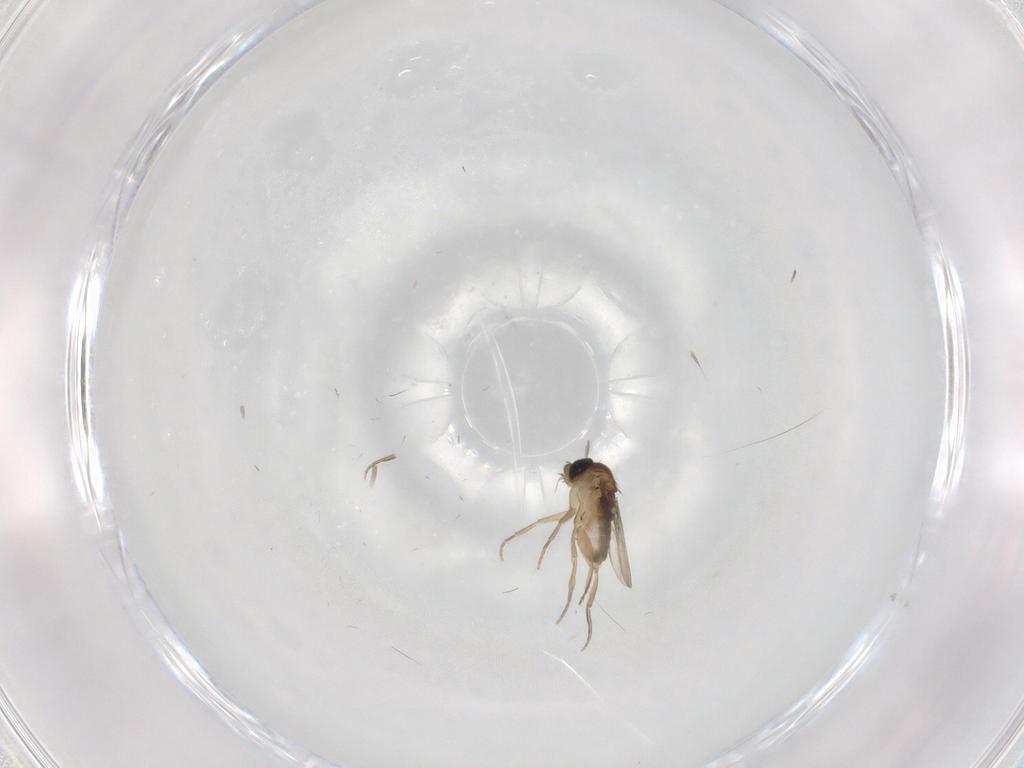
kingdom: Animalia
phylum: Arthropoda
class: Insecta
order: Diptera
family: Phoridae
